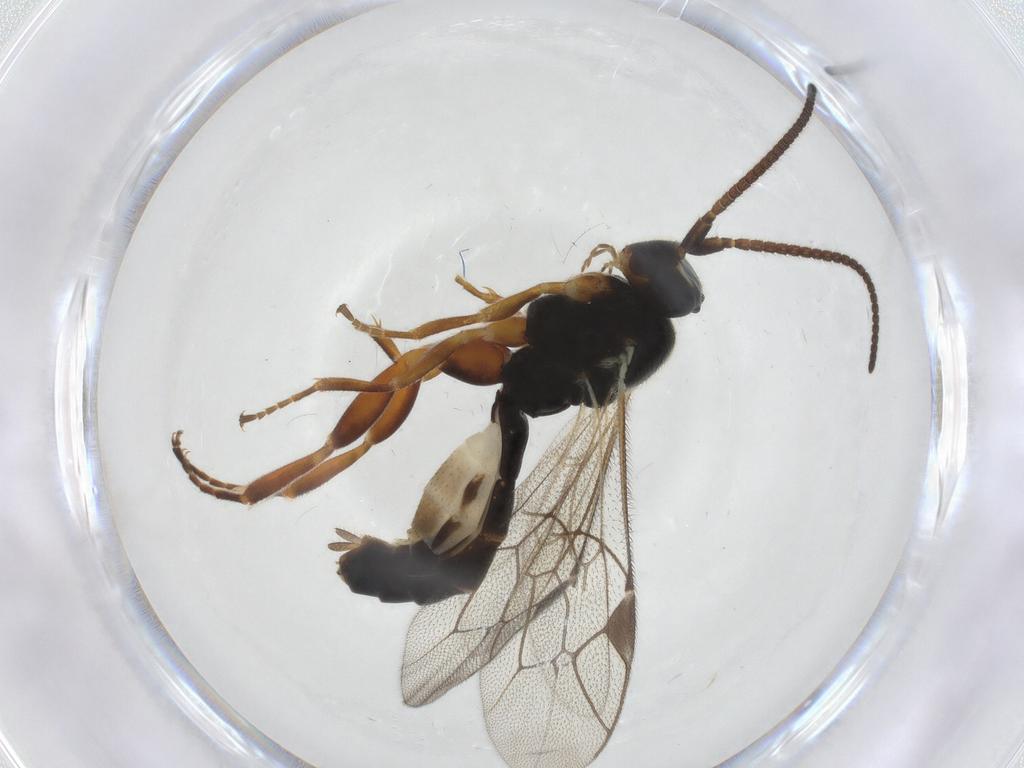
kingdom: Animalia
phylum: Arthropoda
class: Insecta
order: Hymenoptera
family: Ichneumonidae
